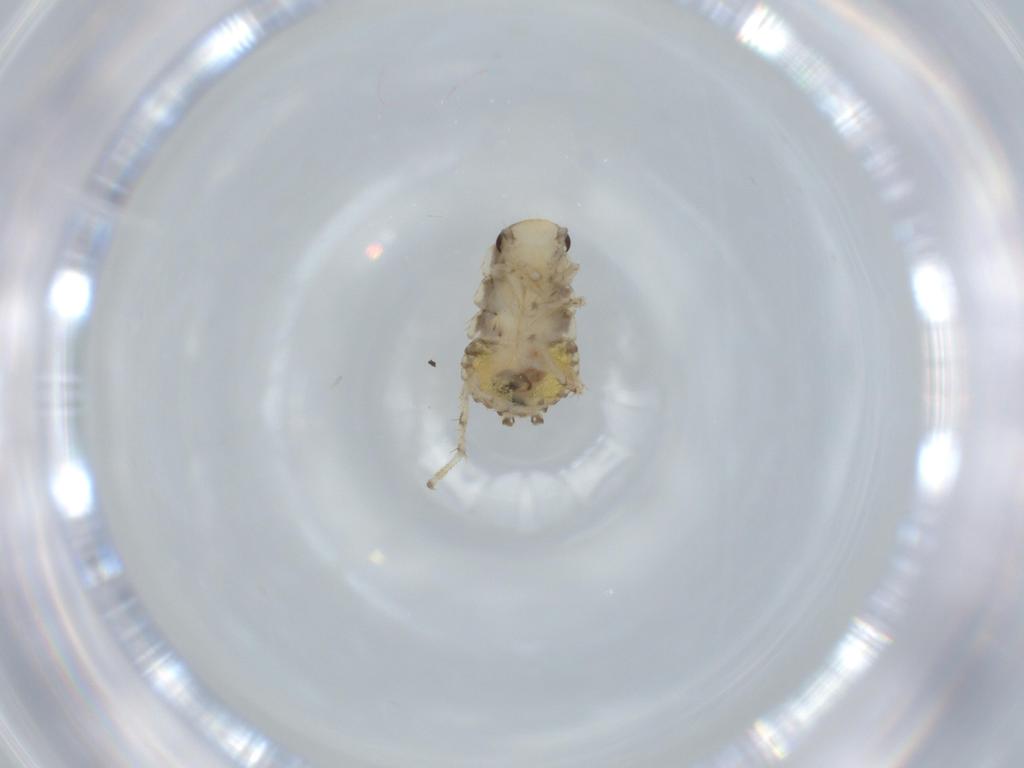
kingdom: Animalia
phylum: Arthropoda
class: Insecta
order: Blattodea
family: Ectobiidae
